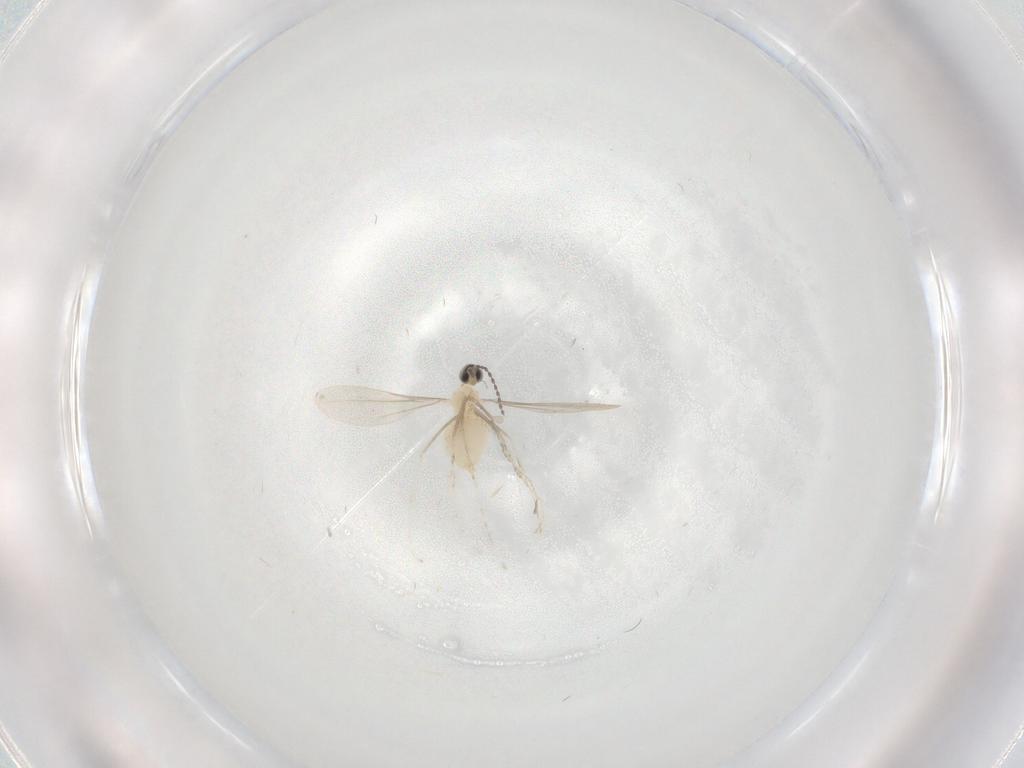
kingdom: Animalia
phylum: Arthropoda
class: Insecta
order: Diptera
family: Cecidomyiidae
